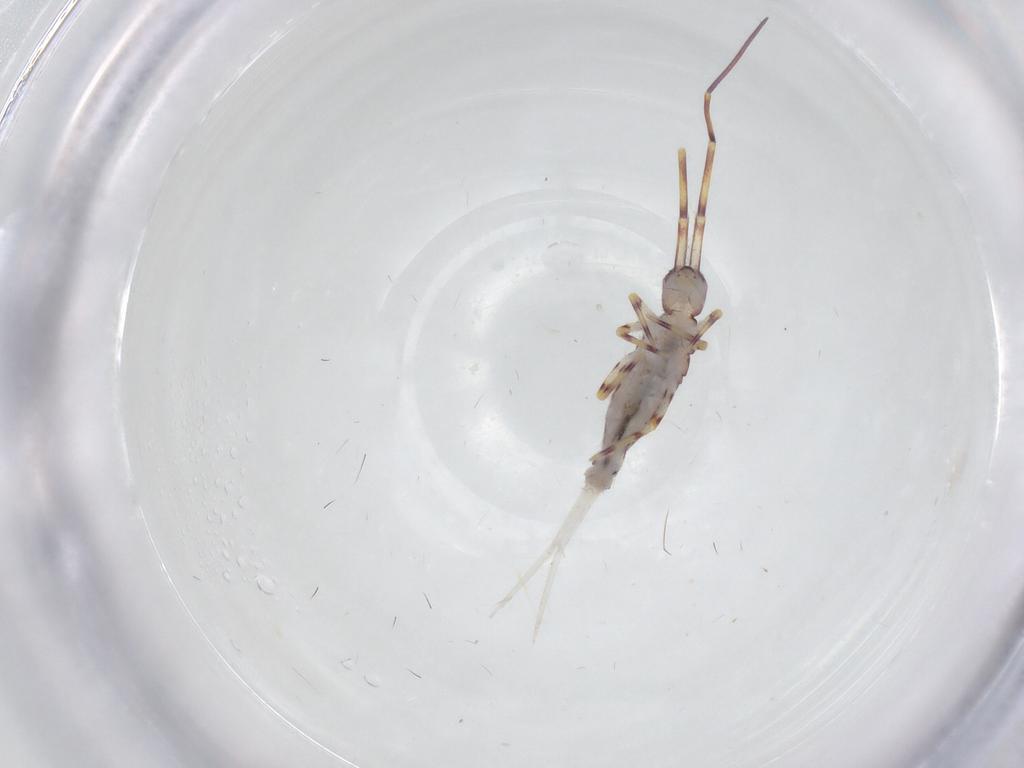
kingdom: Animalia
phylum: Arthropoda
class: Collembola
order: Entomobryomorpha
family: Entomobryidae
